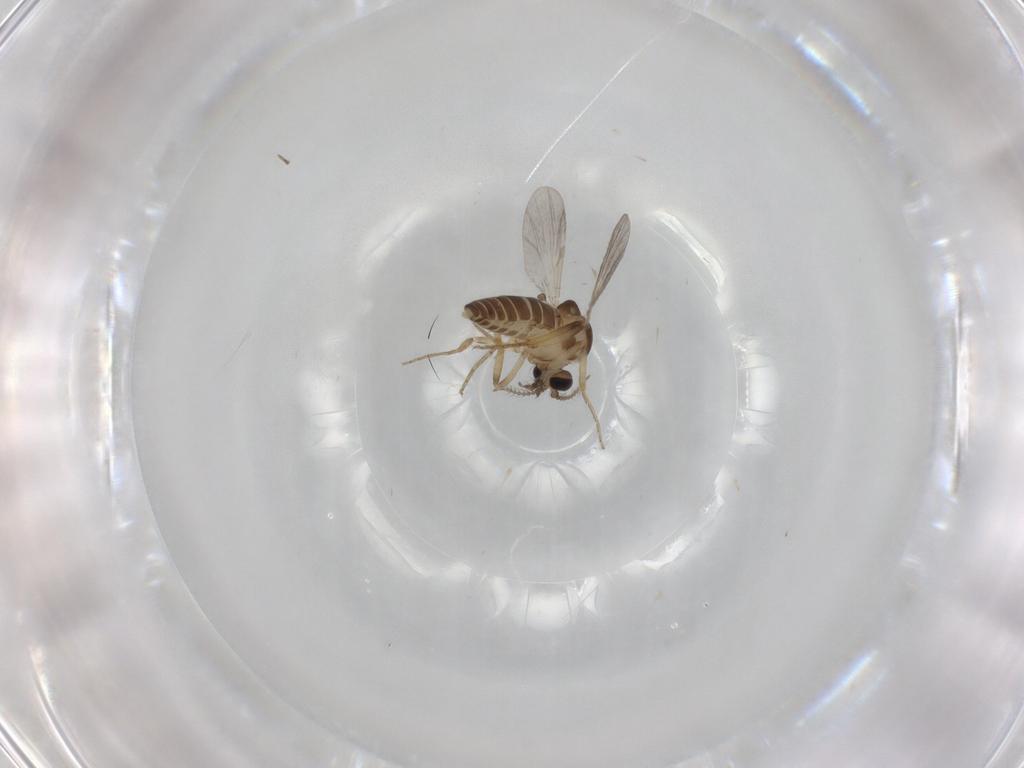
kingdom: Animalia
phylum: Arthropoda
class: Insecta
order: Diptera
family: Ceratopogonidae
